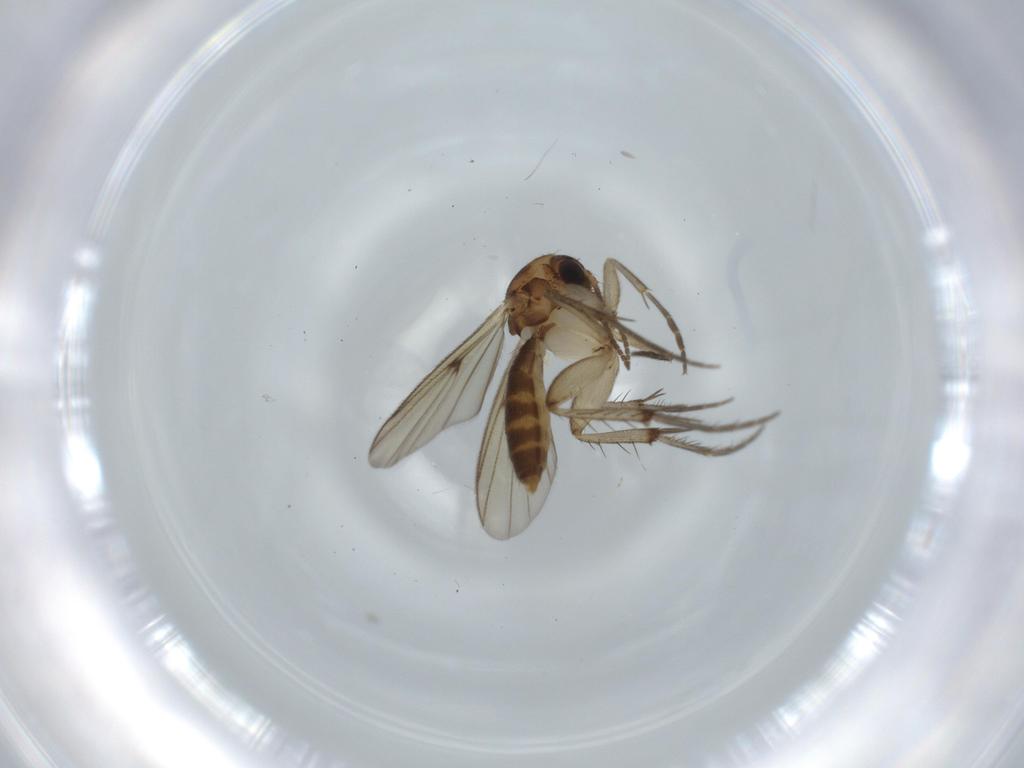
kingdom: Animalia
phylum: Arthropoda
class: Insecta
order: Diptera
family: Mycetophilidae
